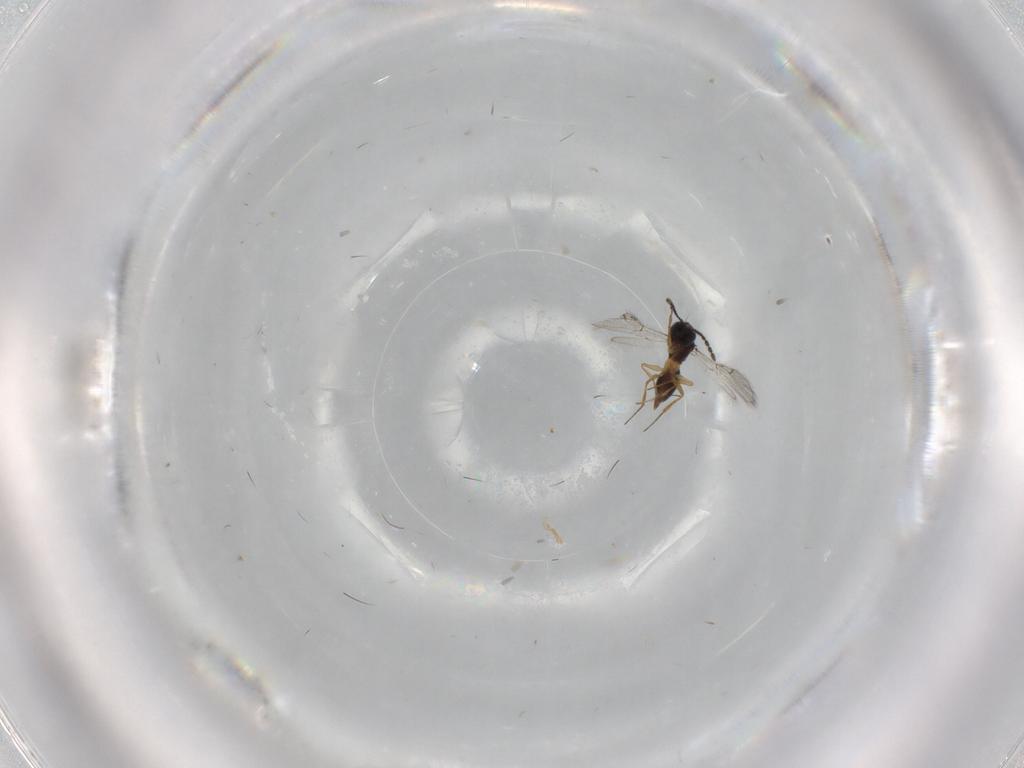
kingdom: Animalia
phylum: Arthropoda
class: Insecta
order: Hymenoptera
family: Figitidae
